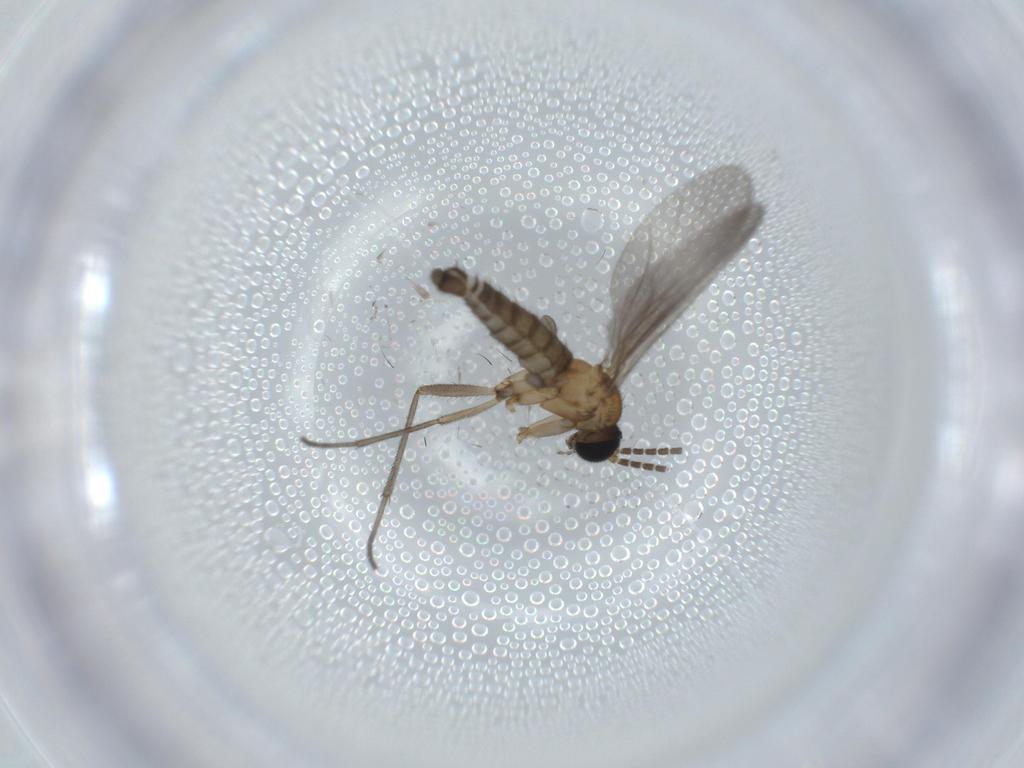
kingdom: Animalia
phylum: Arthropoda
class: Insecta
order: Diptera
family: Sciaridae
